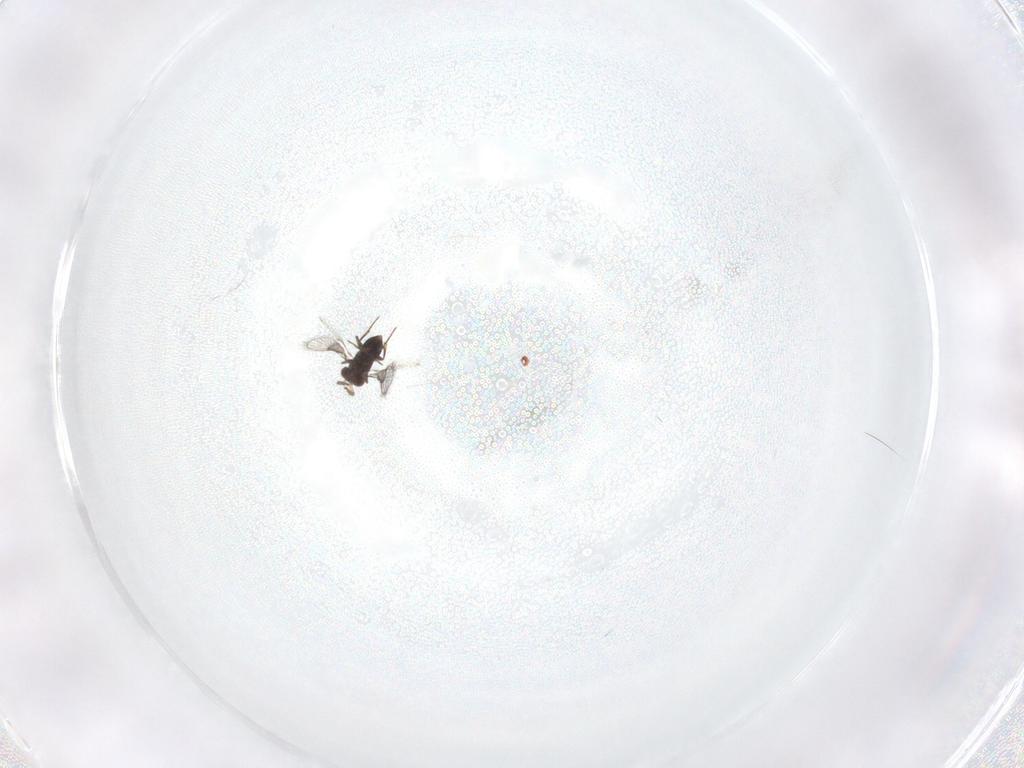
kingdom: Animalia
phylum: Arthropoda
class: Insecta
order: Hymenoptera
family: Trichogrammatidae
